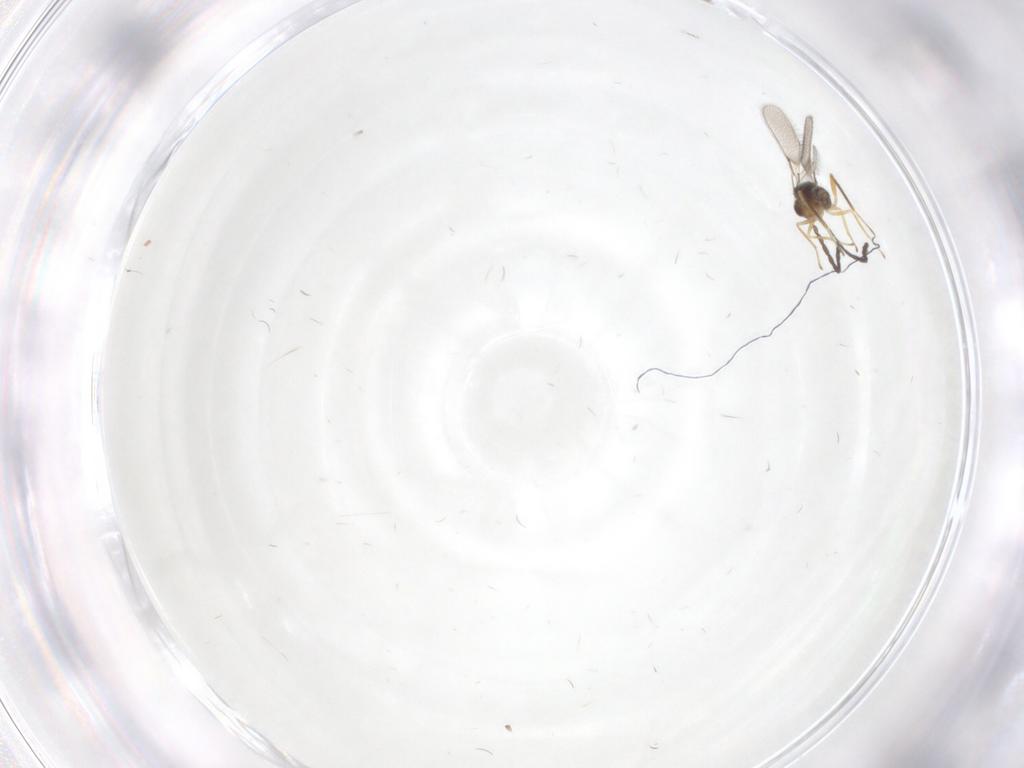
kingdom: Animalia
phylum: Arthropoda
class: Insecta
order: Hymenoptera
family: Mymaridae
